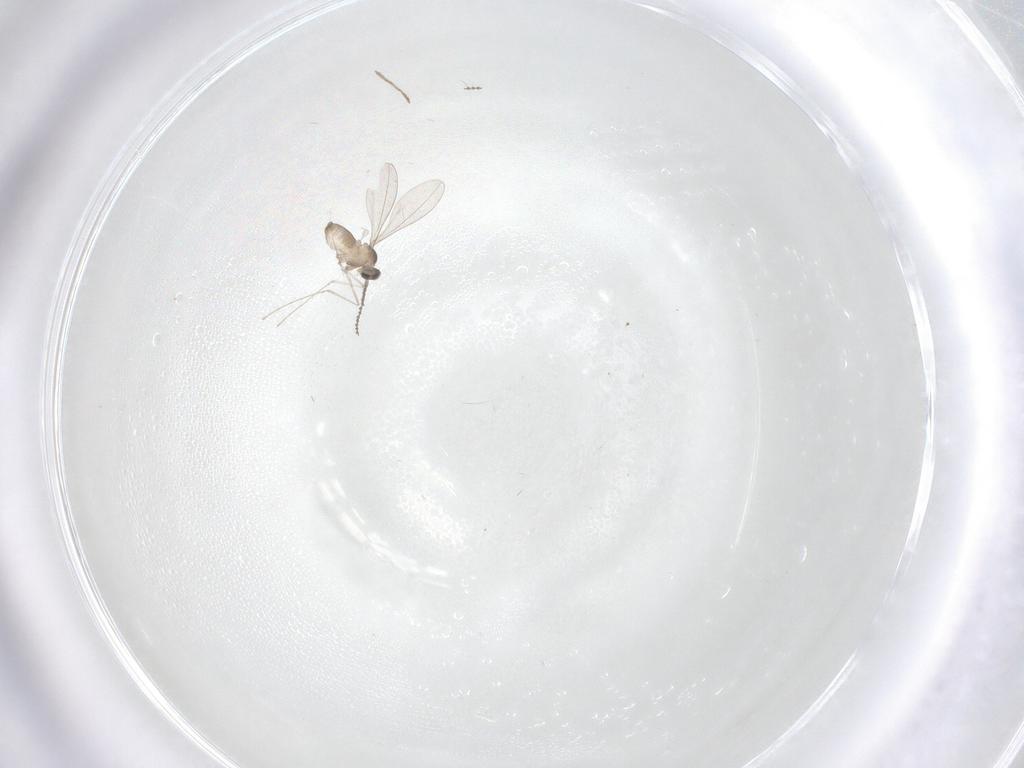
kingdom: Animalia
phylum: Arthropoda
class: Insecta
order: Diptera
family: Cecidomyiidae
